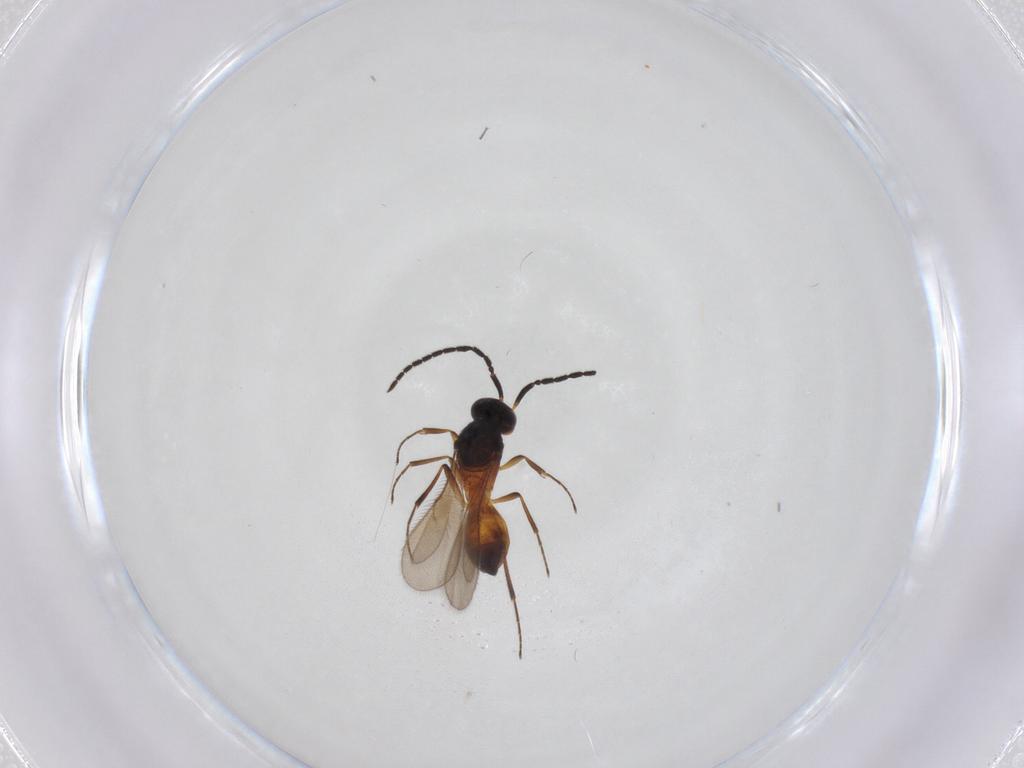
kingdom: Animalia
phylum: Arthropoda
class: Insecta
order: Hymenoptera
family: Scelionidae
